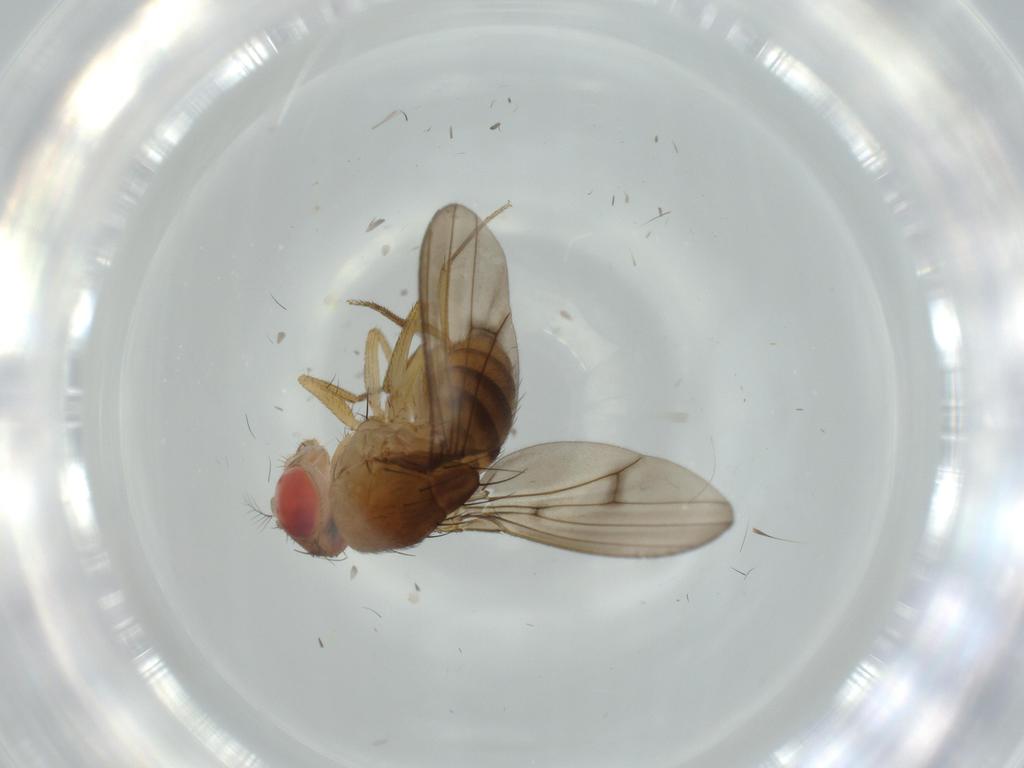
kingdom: Animalia
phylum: Arthropoda
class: Insecta
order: Diptera
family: Drosophilidae
